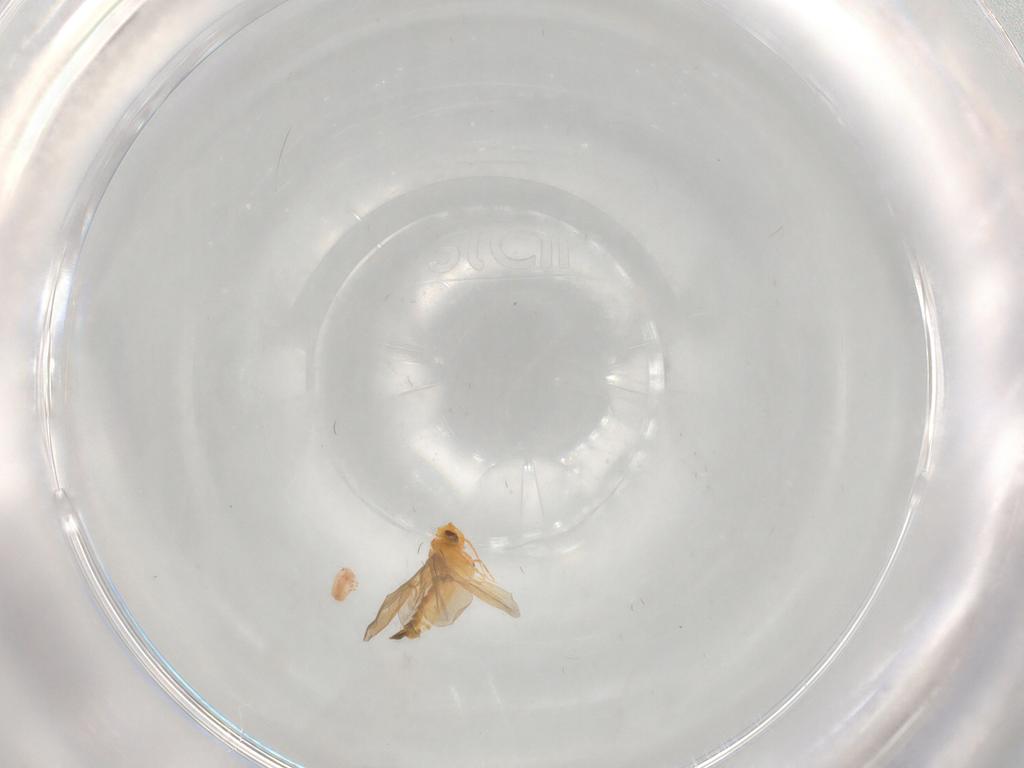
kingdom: Animalia
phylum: Arthropoda
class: Insecta
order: Hemiptera
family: Aleyrodidae
